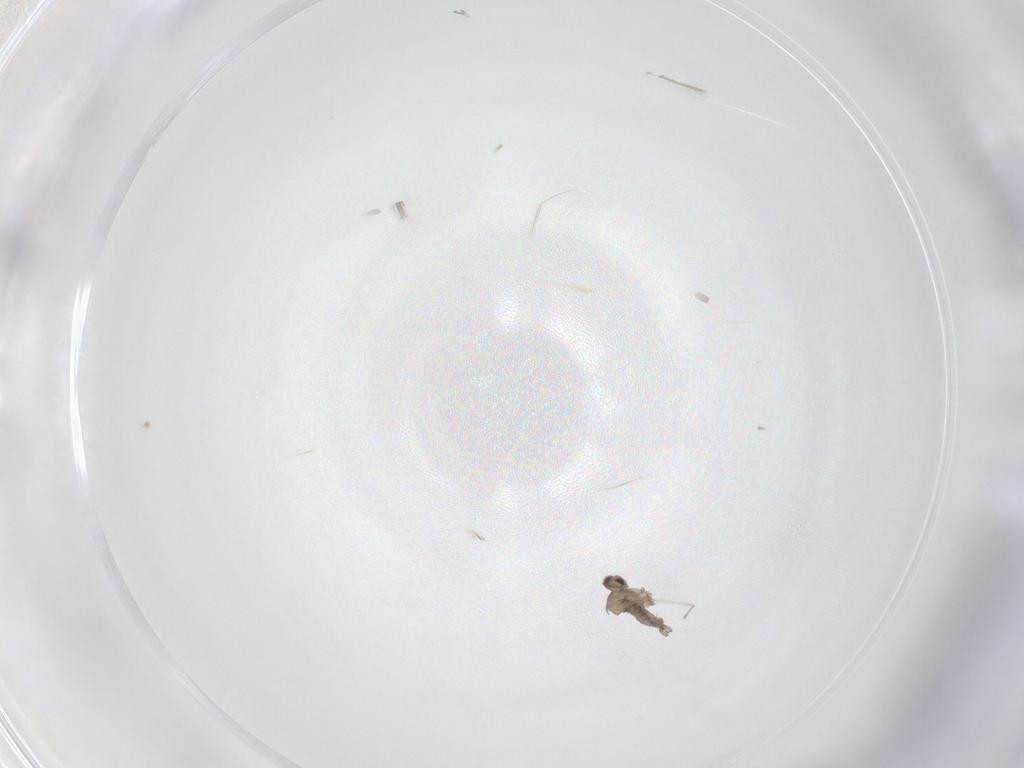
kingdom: Animalia
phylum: Arthropoda
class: Insecta
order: Diptera
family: Cecidomyiidae
